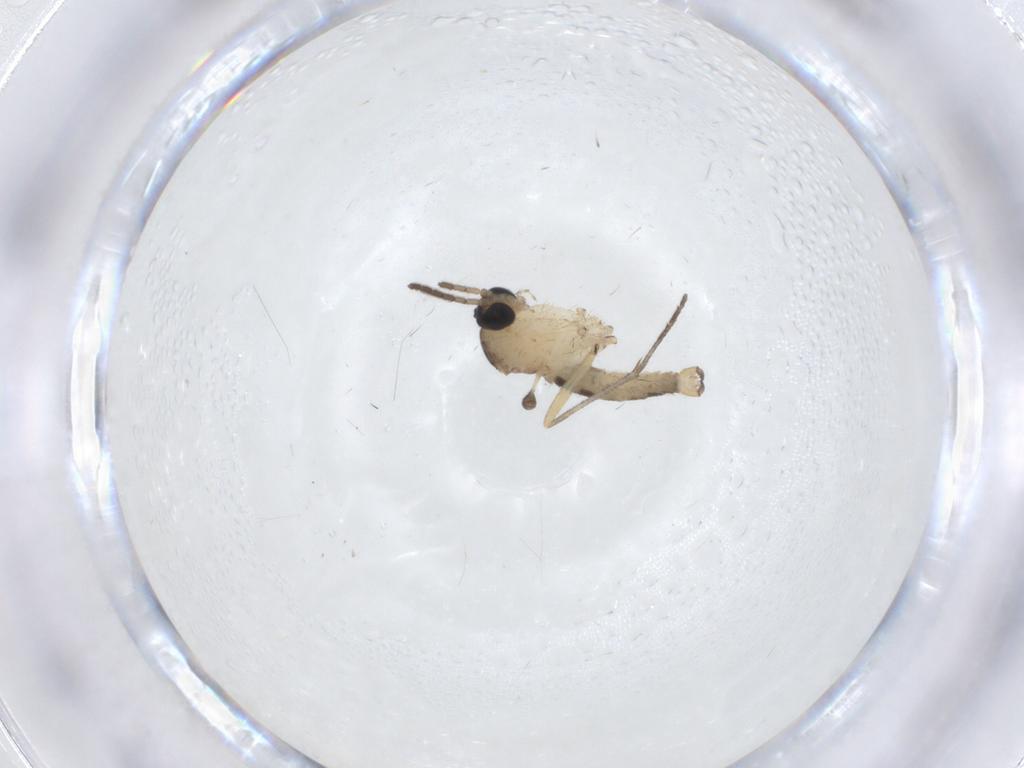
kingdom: Animalia
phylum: Arthropoda
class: Insecta
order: Diptera
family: Sciaridae
